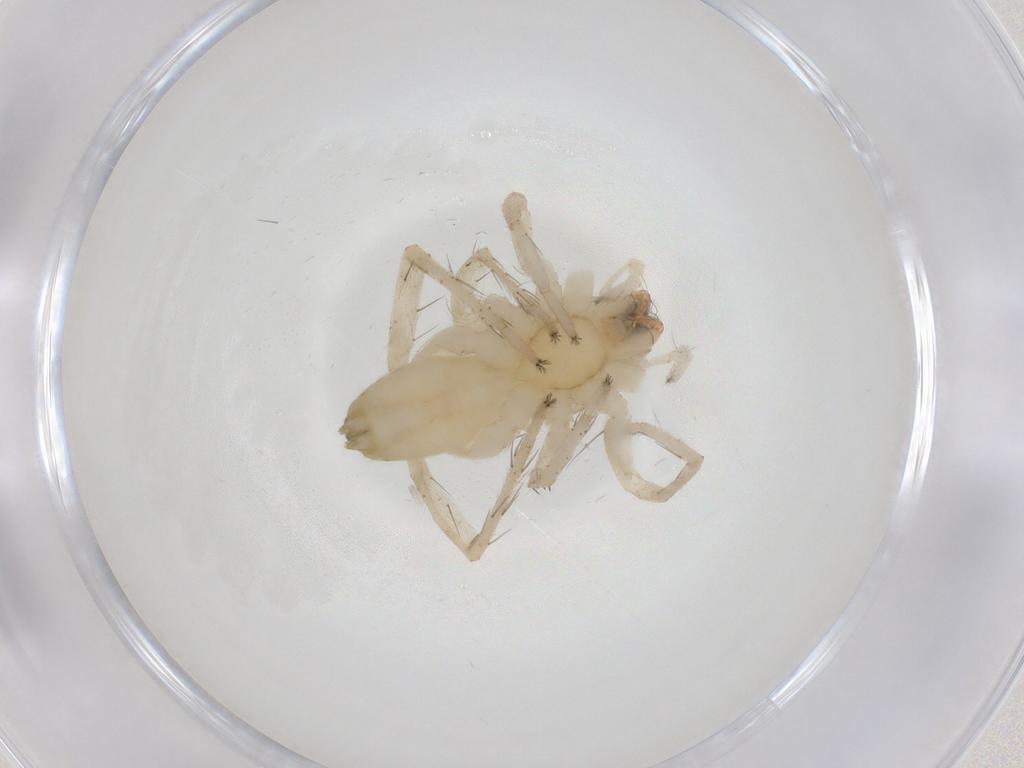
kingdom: Animalia
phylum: Arthropoda
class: Arachnida
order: Araneae
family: Anyphaenidae
